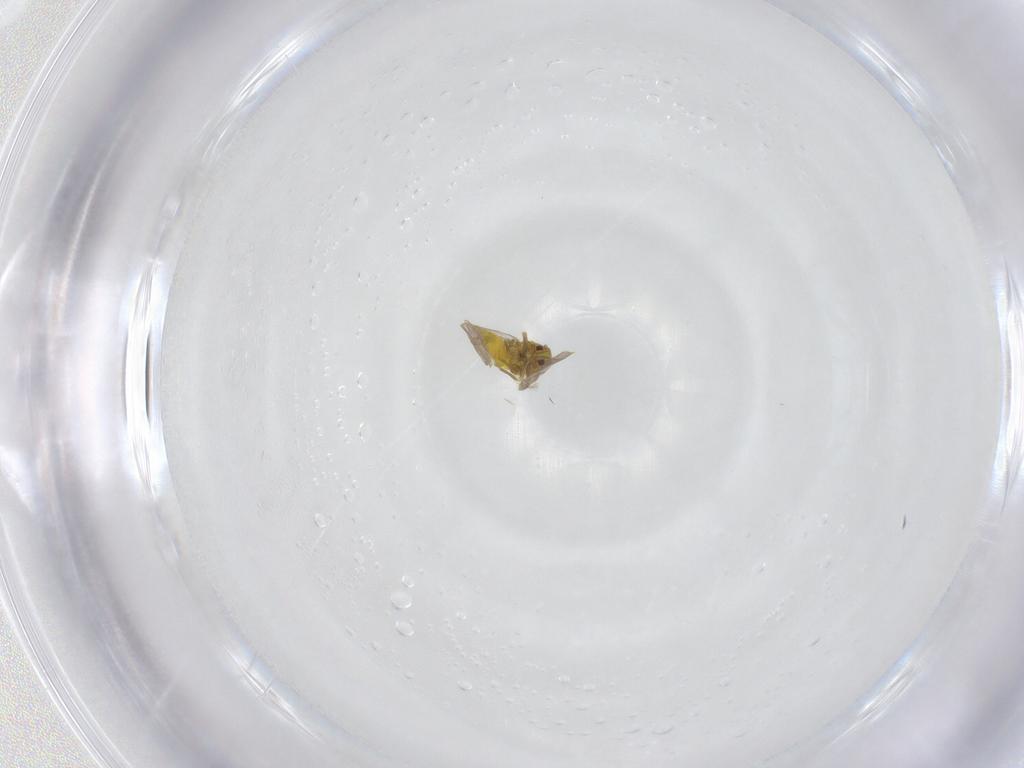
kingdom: Animalia
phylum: Arthropoda
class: Insecta
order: Hemiptera
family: Aleyrodidae
